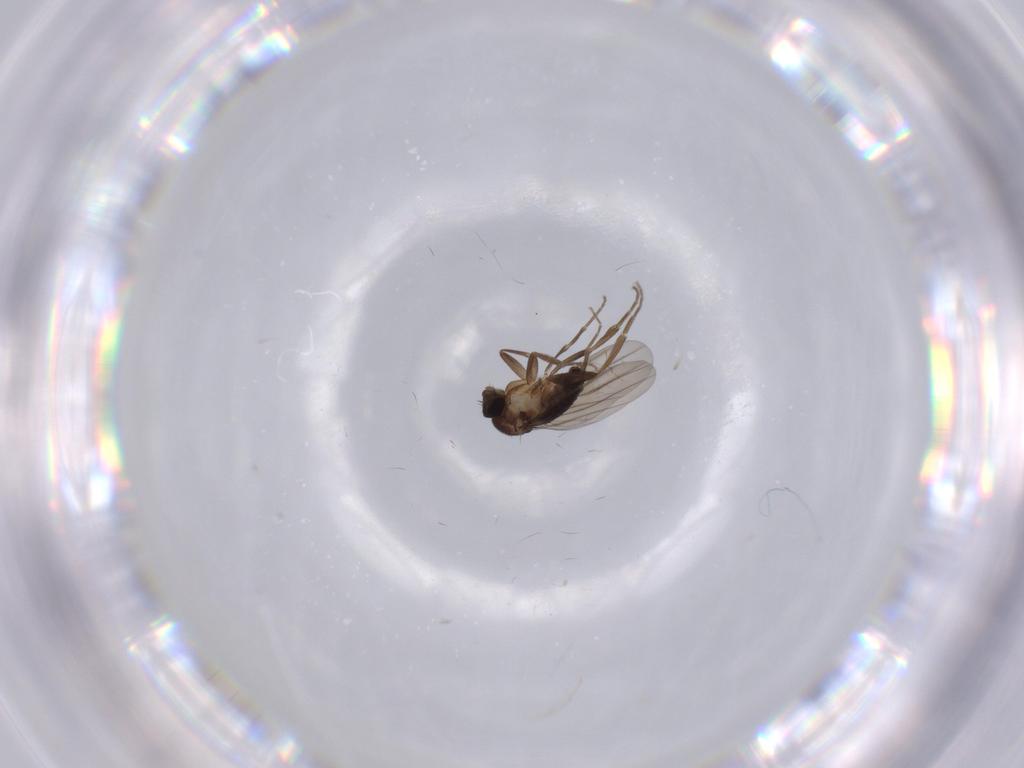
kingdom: Animalia
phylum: Arthropoda
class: Insecta
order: Diptera
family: Phoridae
